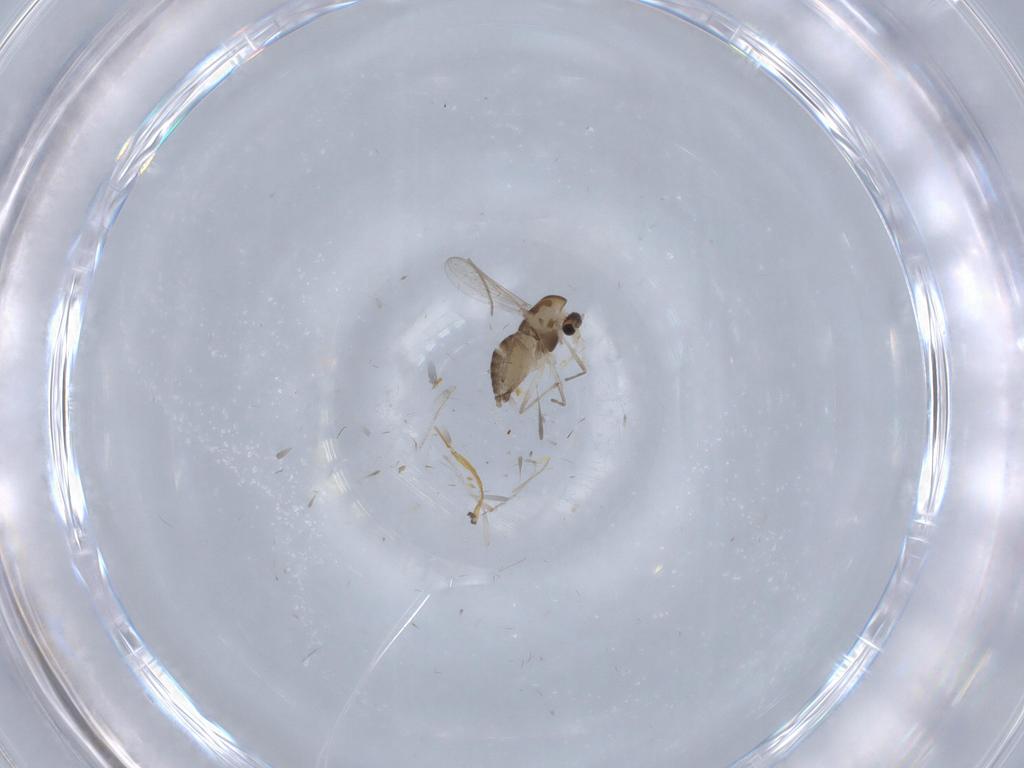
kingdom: Animalia
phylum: Arthropoda
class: Insecta
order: Diptera
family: Chironomidae
